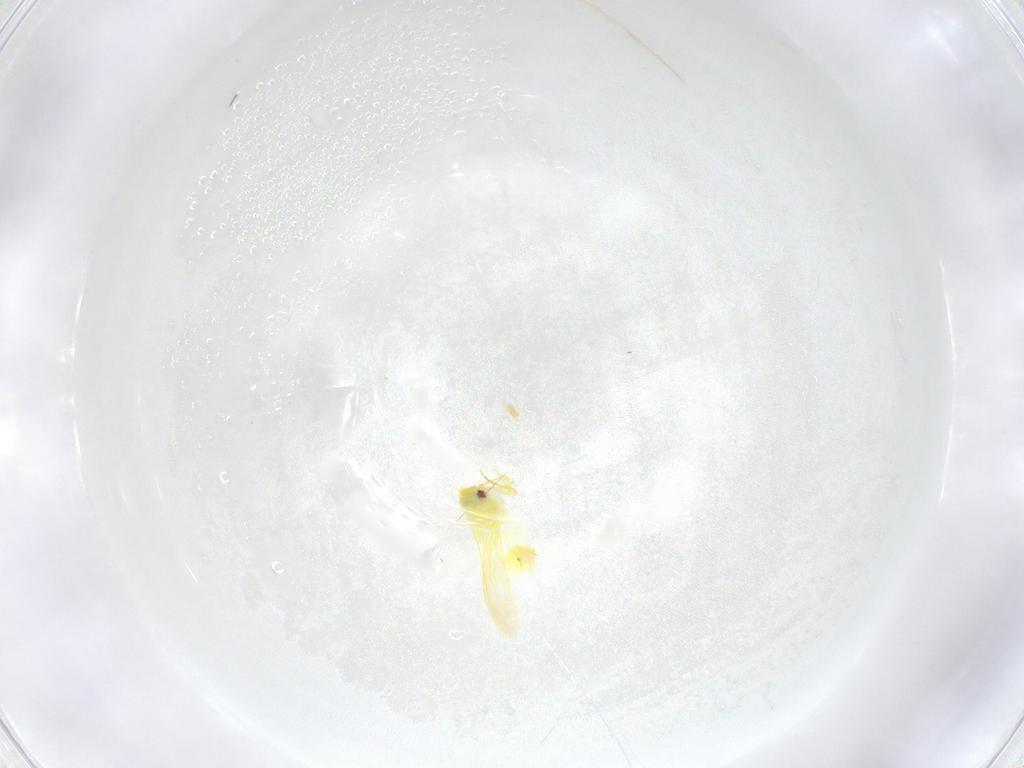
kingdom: Animalia
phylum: Arthropoda
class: Insecta
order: Hemiptera
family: Aleyrodidae
